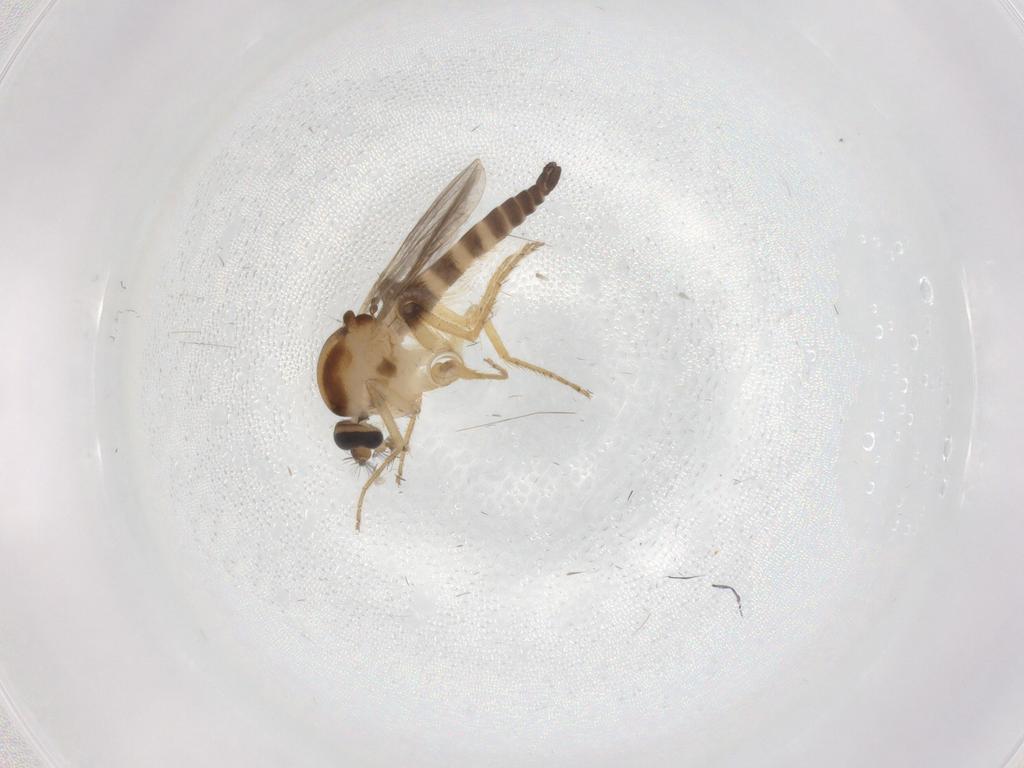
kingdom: Animalia
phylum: Arthropoda
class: Insecta
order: Diptera
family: Ceratopogonidae
